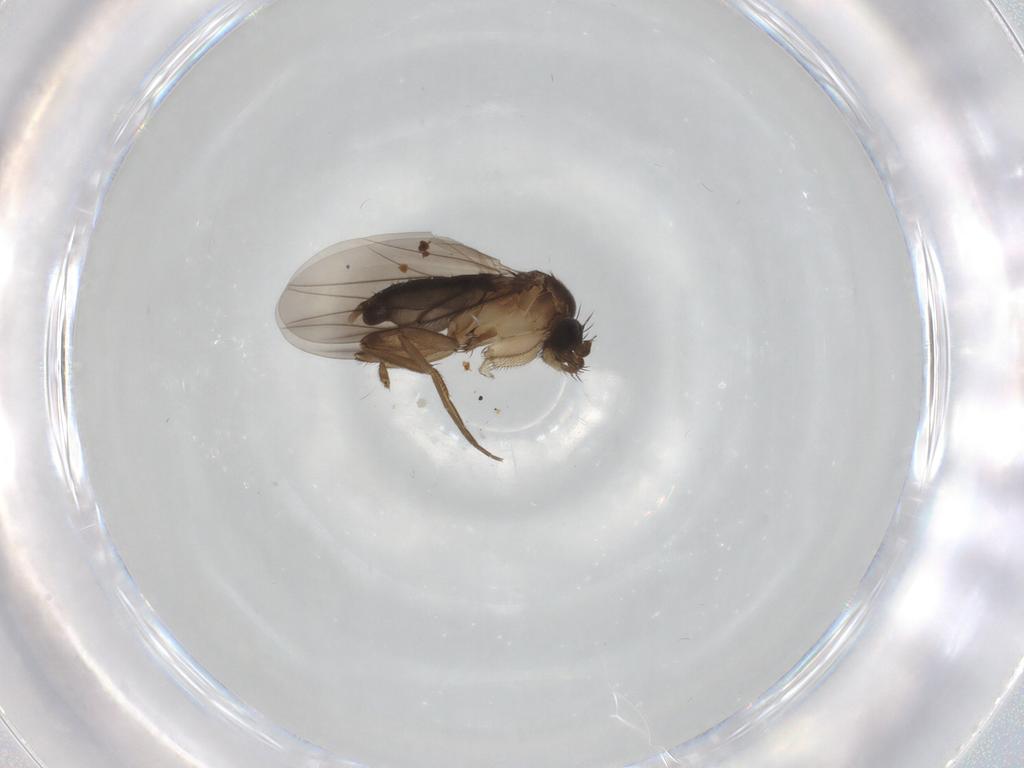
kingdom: Animalia
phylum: Arthropoda
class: Insecta
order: Diptera
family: Phoridae
